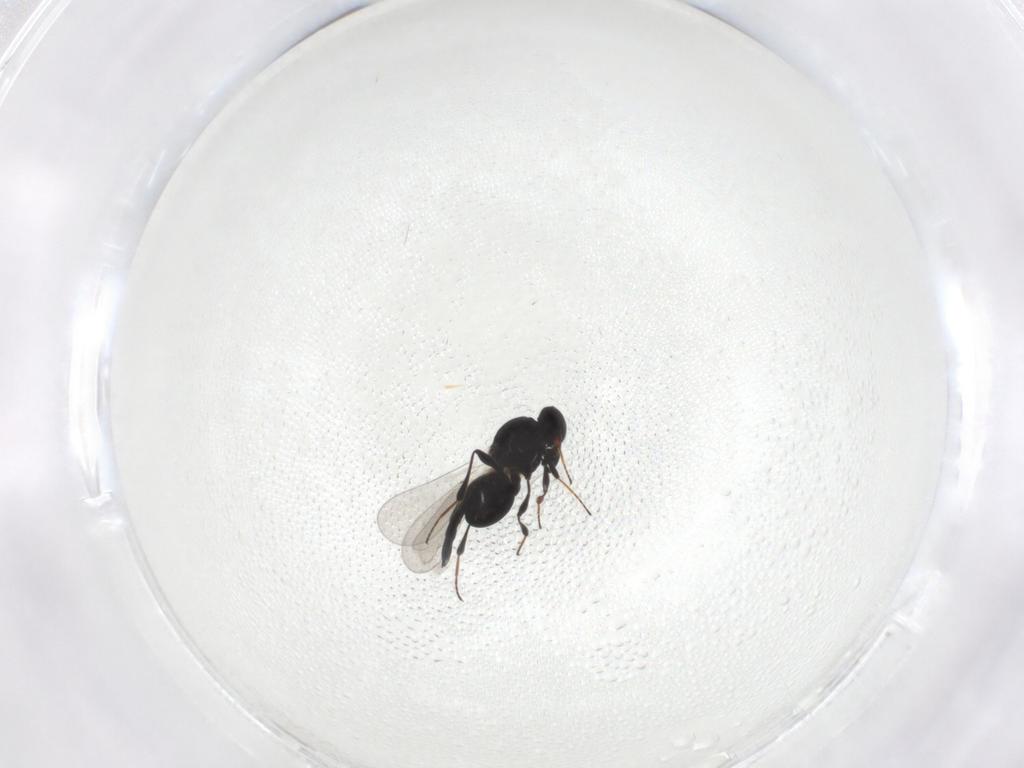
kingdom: Animalia
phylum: Arthropoda
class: Insecta
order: Hymenoptera
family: Platygastridae
